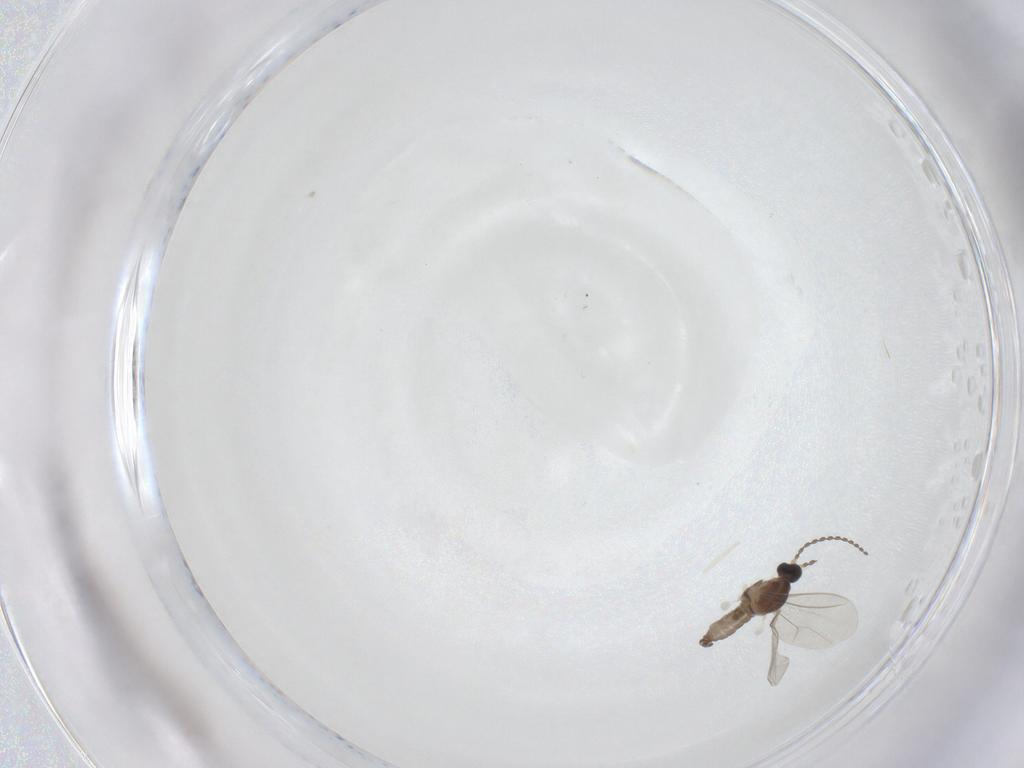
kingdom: Animalia
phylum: Arthropoda
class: Insecta
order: Diptera
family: Cecidomyiidae
